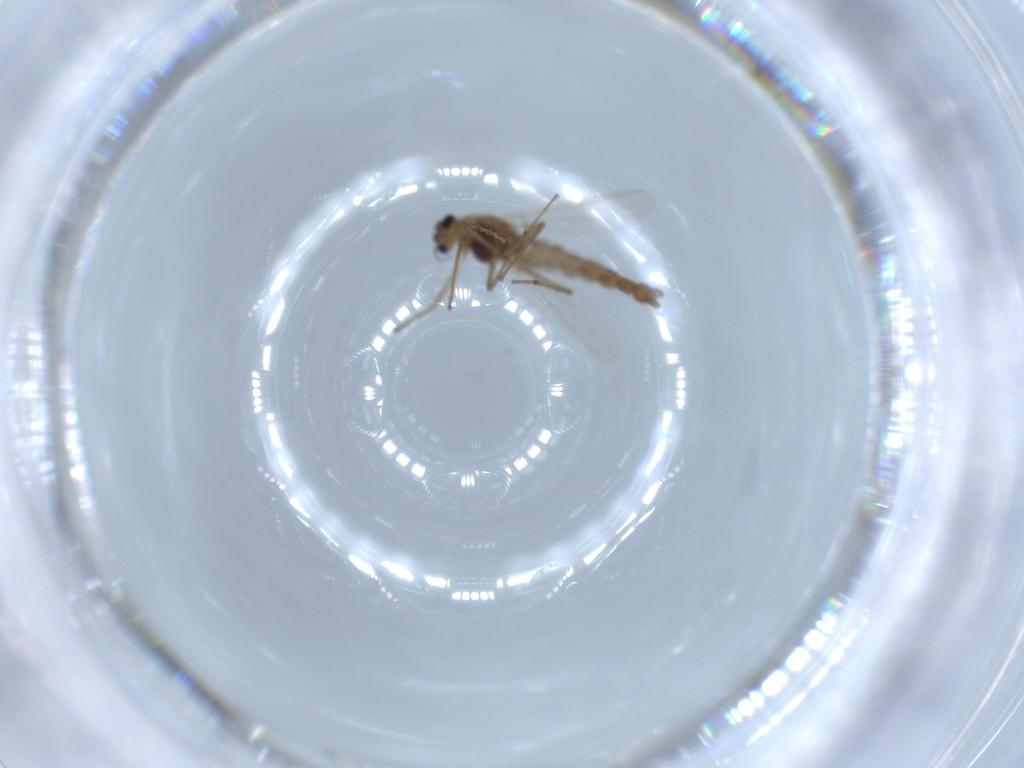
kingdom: Animalia
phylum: Arthropoda
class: Insecta
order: Diptera
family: Chironomidae
